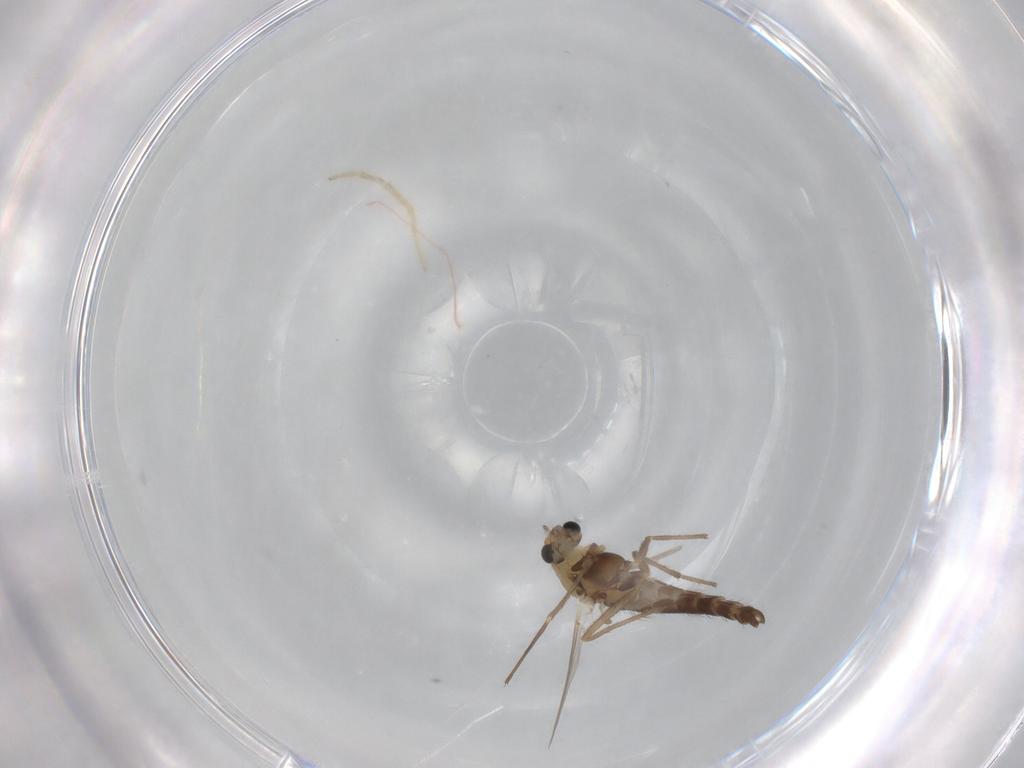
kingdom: Animalia
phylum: Arthropoda
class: Insecta
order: Diptera
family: Chironomidae
